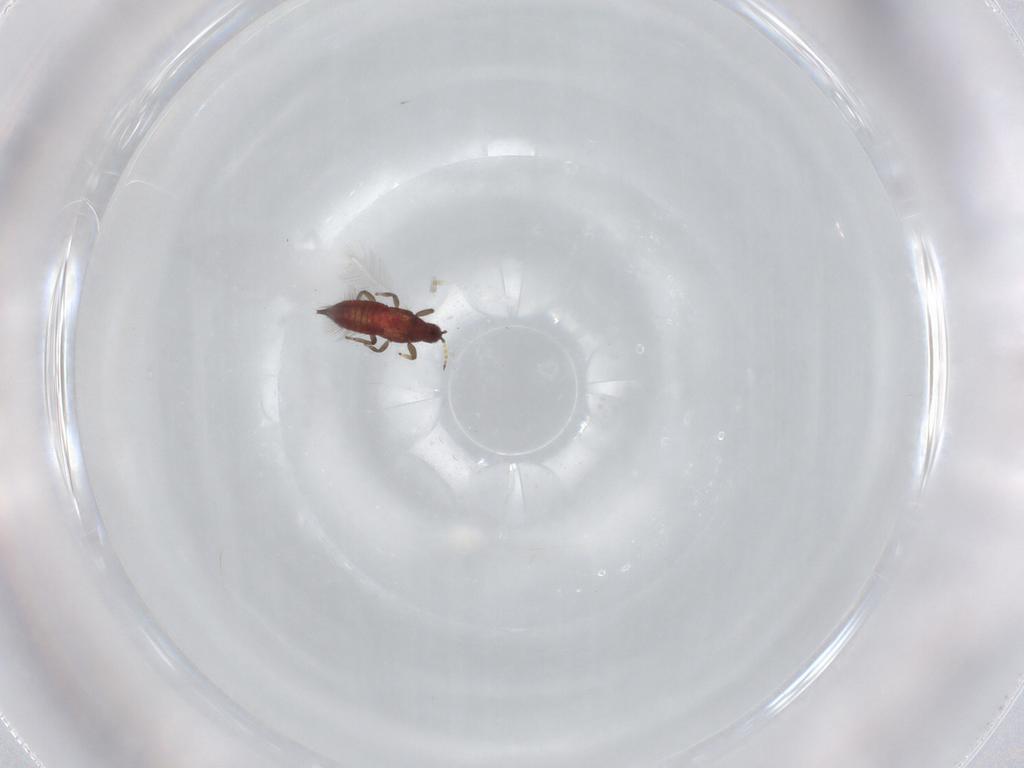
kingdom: Animalia
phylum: Arthropoda
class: Insecta
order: Thysanoptera
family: Phlaeothripidae
